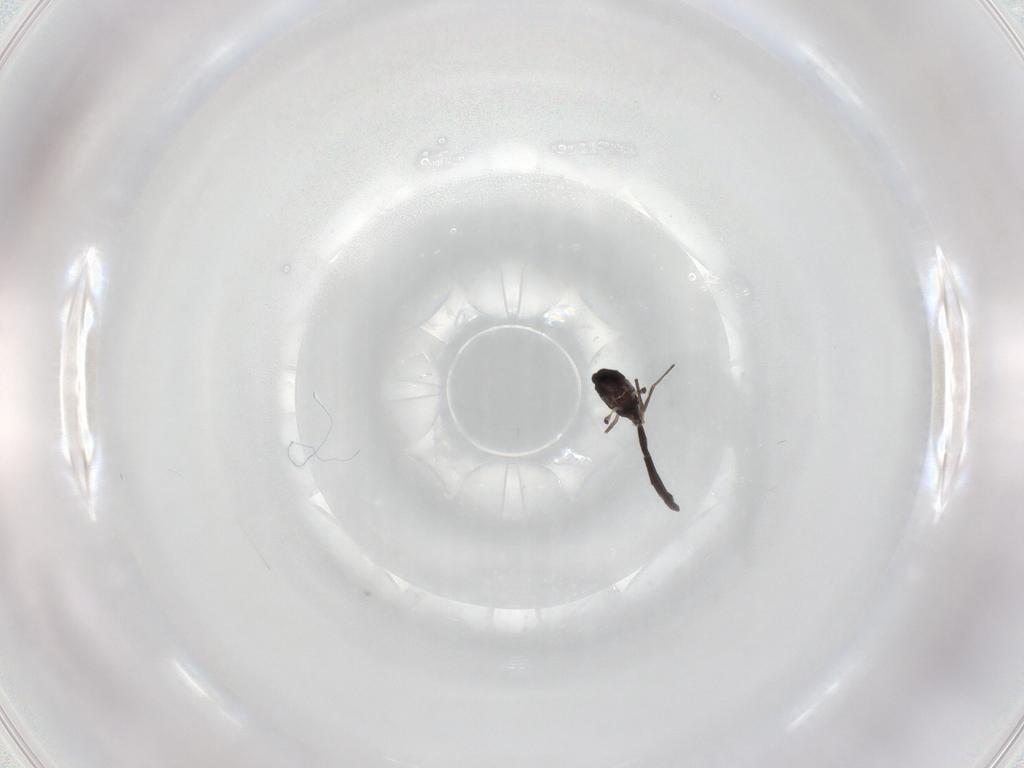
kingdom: Animalia
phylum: Arthropoda
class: Insecta
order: Diptera
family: Chironomidae
